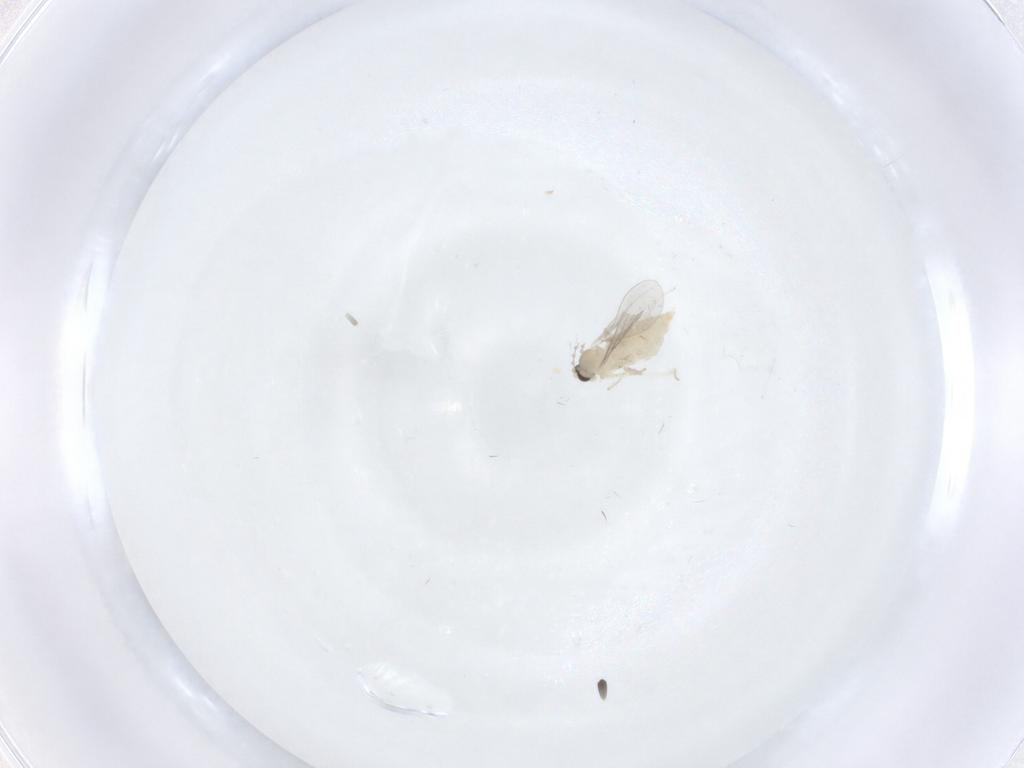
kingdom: Animalia
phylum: Arthropoda
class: Insecta
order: Diptera
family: Cecidomyiidae
